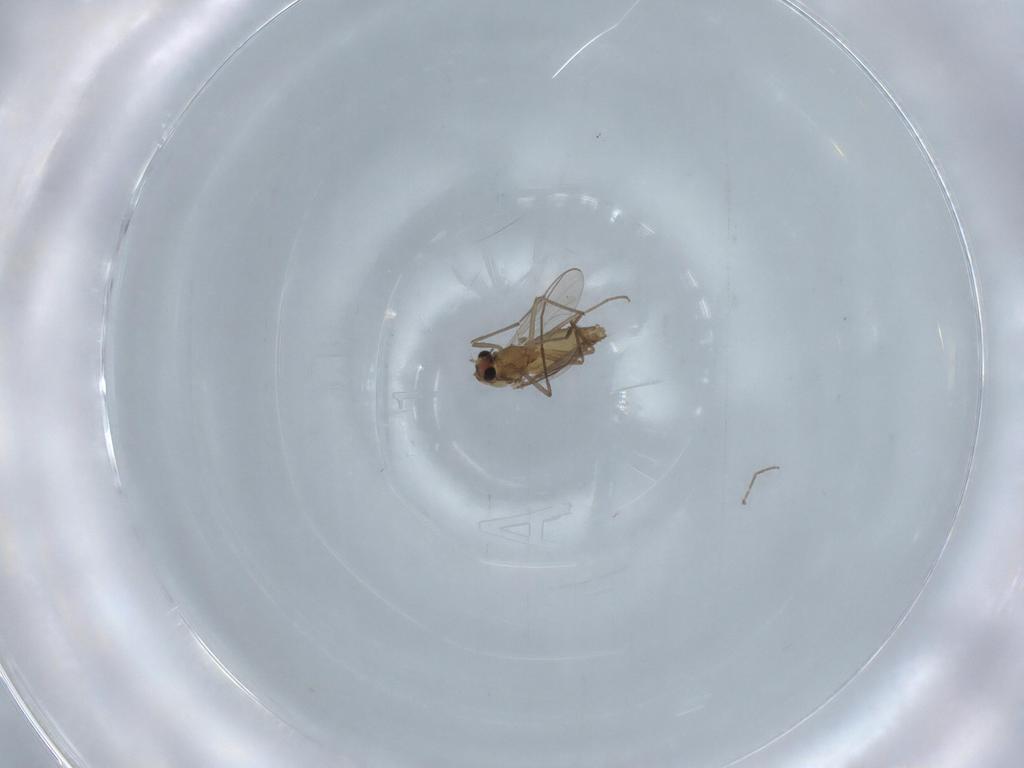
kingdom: Animalia
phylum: Arthropoda
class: Insecta
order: Diptera
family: Chironomidae
